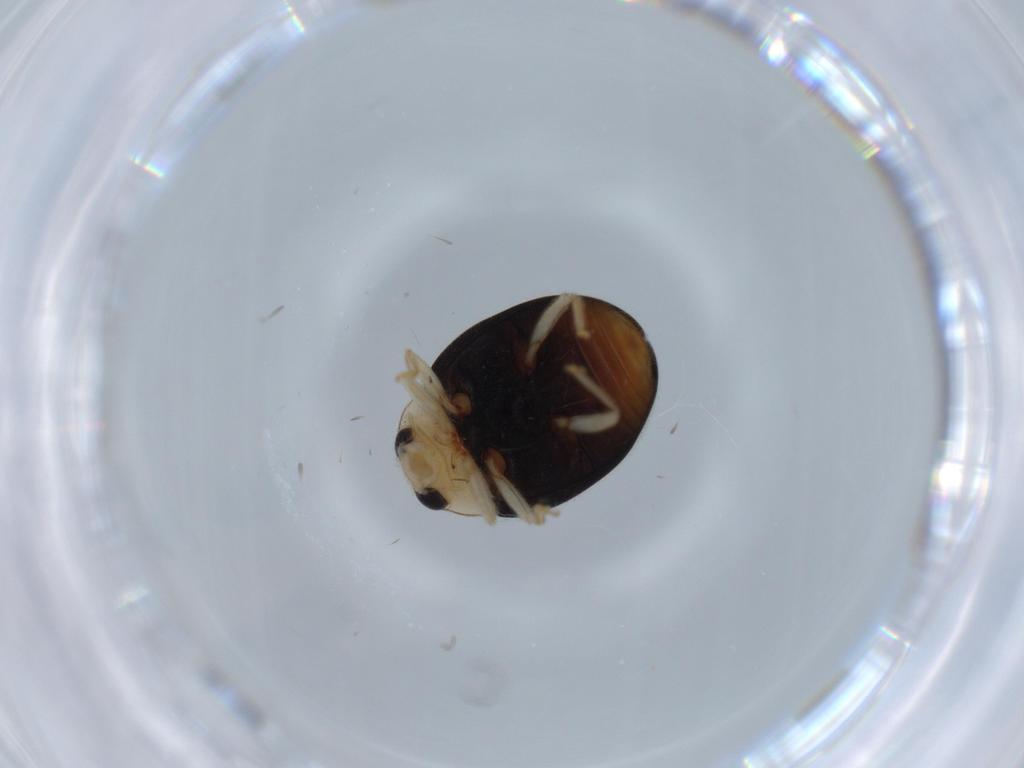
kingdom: Animalia
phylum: Arthropoda
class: Insecta
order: Coleoptera
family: Coccinellidae
